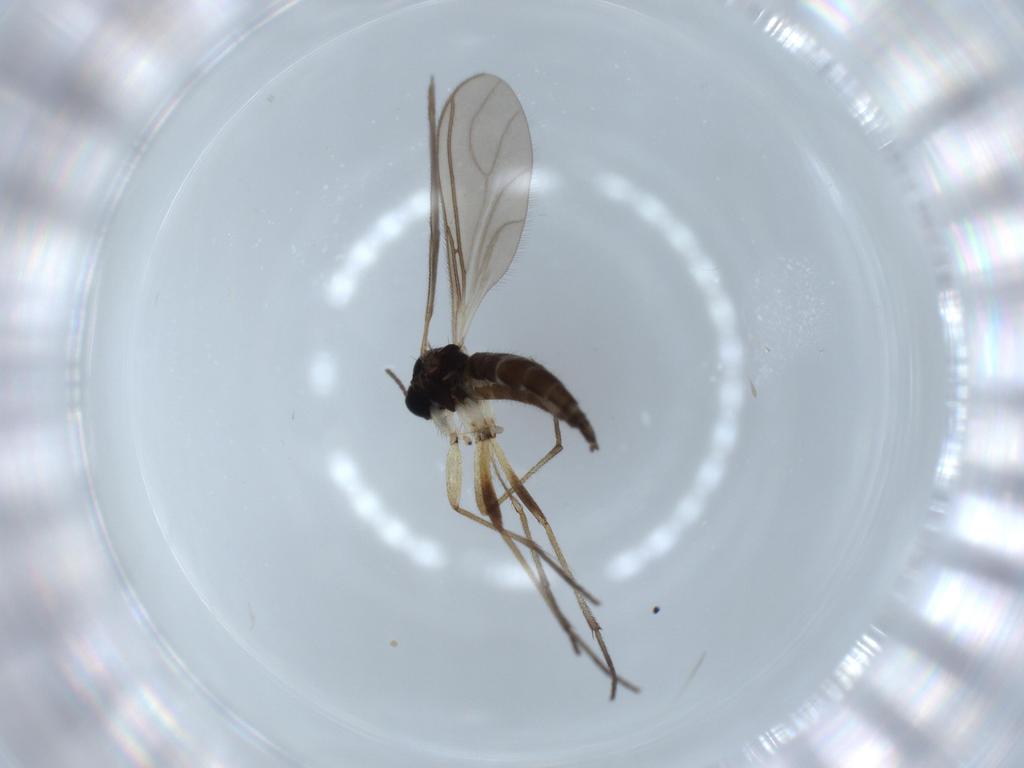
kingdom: Animalia
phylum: Arthropoda
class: Insecta
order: Diptera
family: Sciaridae
